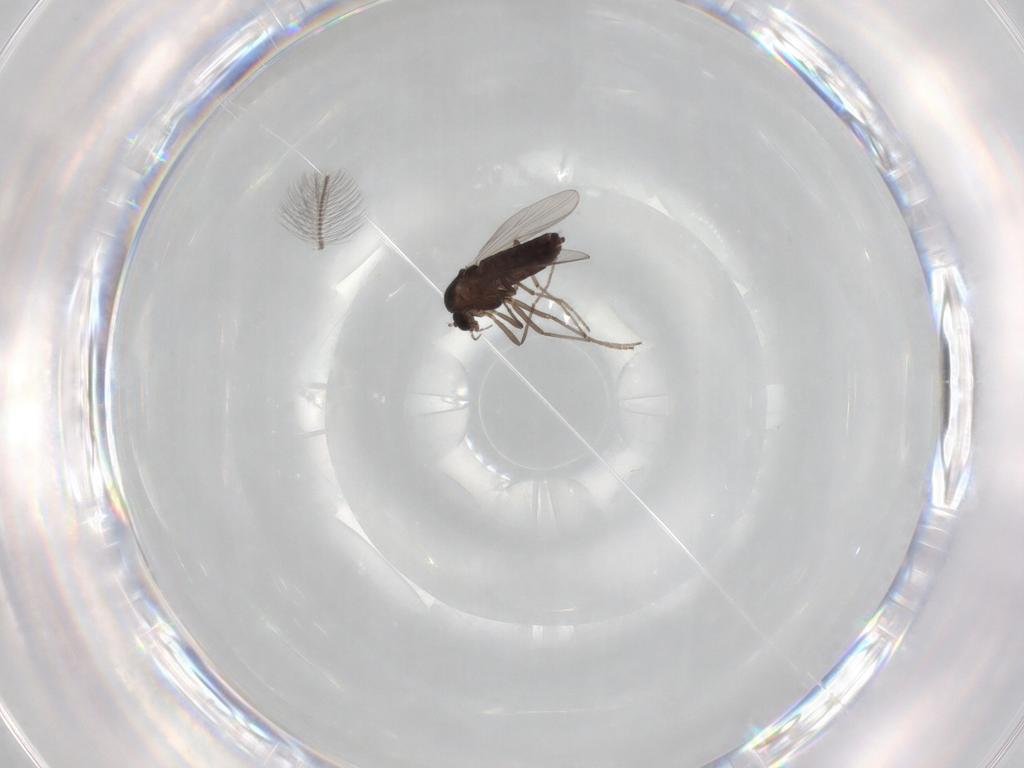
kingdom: Animalia
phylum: Arthropoda
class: Insecta
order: Diptera
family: Chironomidae
